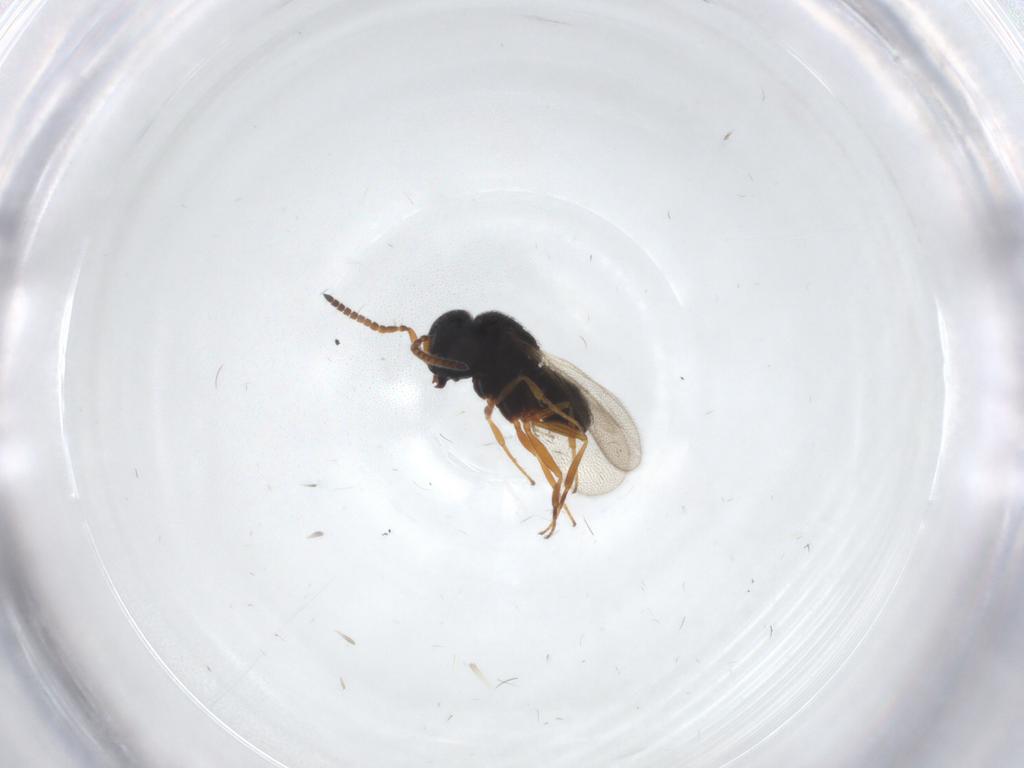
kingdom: Animalia
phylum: Arthropoda
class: Insecta
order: Hymenoptera
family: Scelionidae
